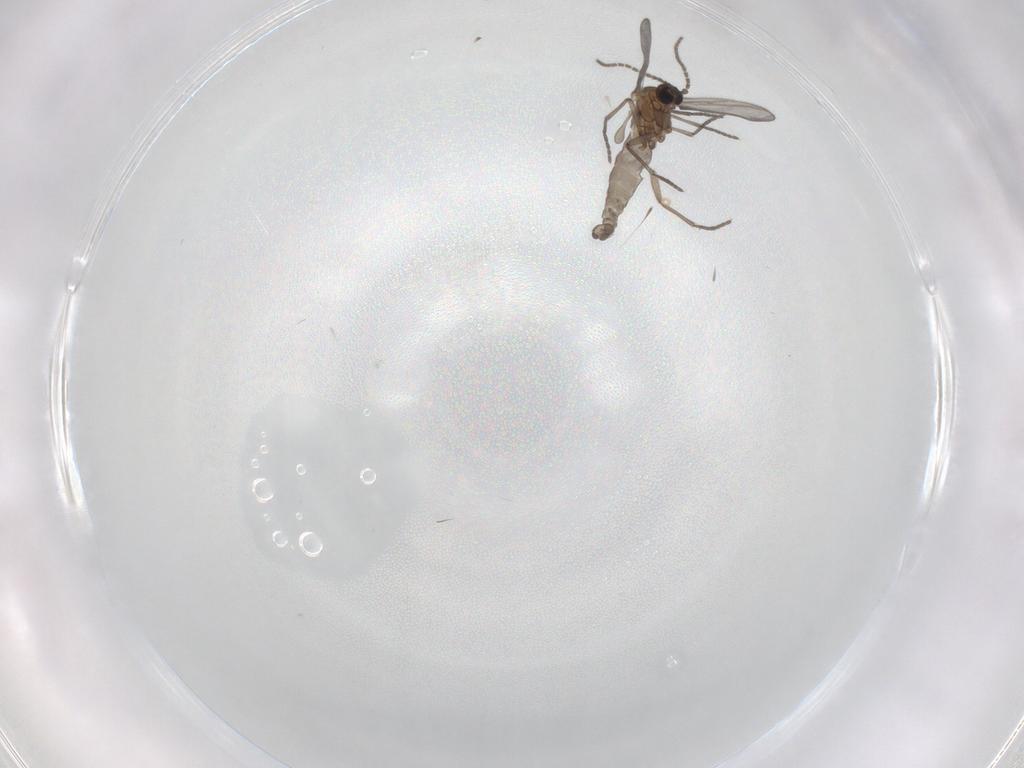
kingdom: Animalia
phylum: Arthropoda
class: Insecta
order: Diptera
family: Sciaridae
